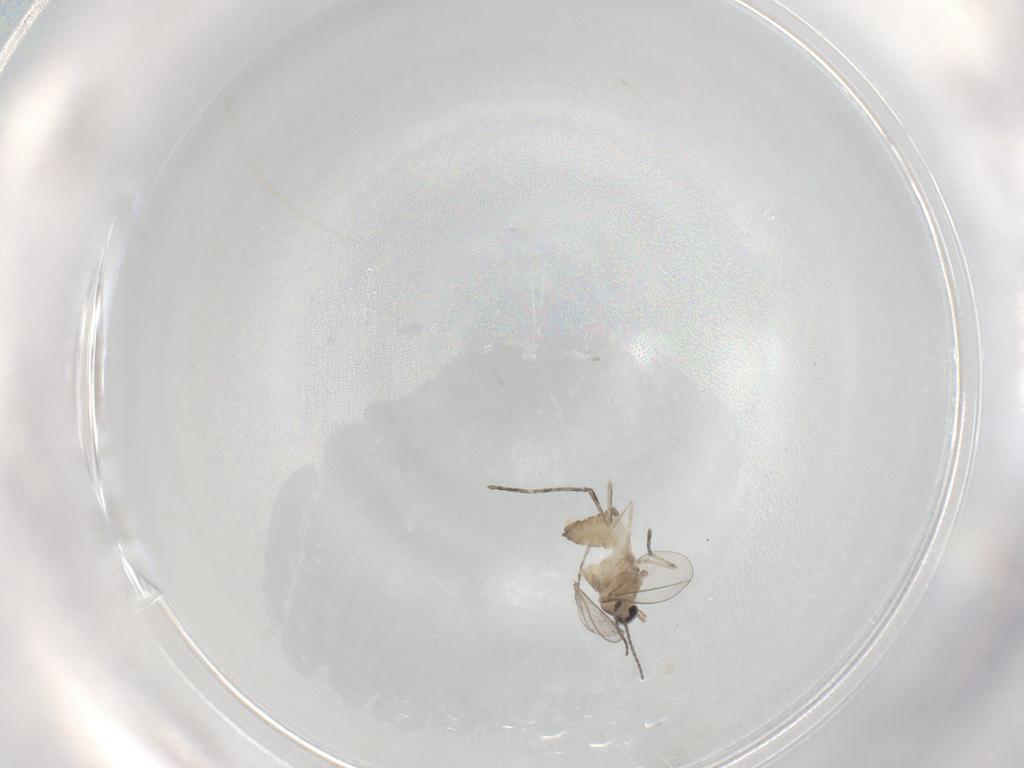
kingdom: Animalia
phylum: Arthropoda
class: Insecta
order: Diptera
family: Cecidomyiidae
